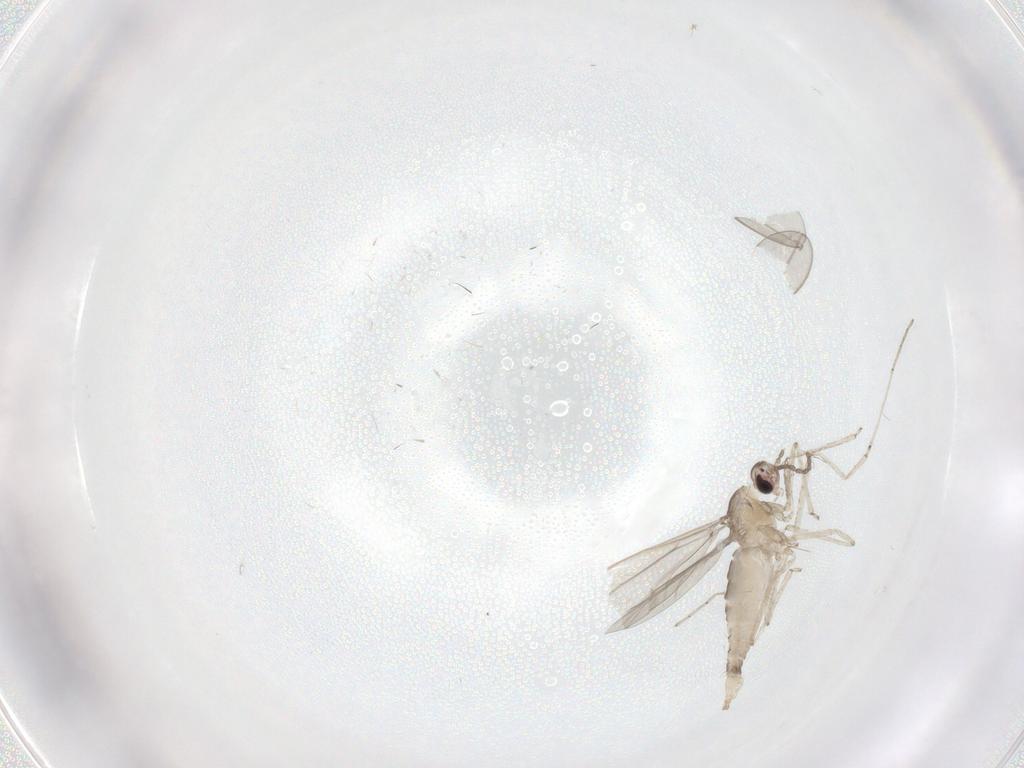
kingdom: Animalia
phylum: Arthropoda
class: Insecta
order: Diptera
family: Cecidomyiidae
